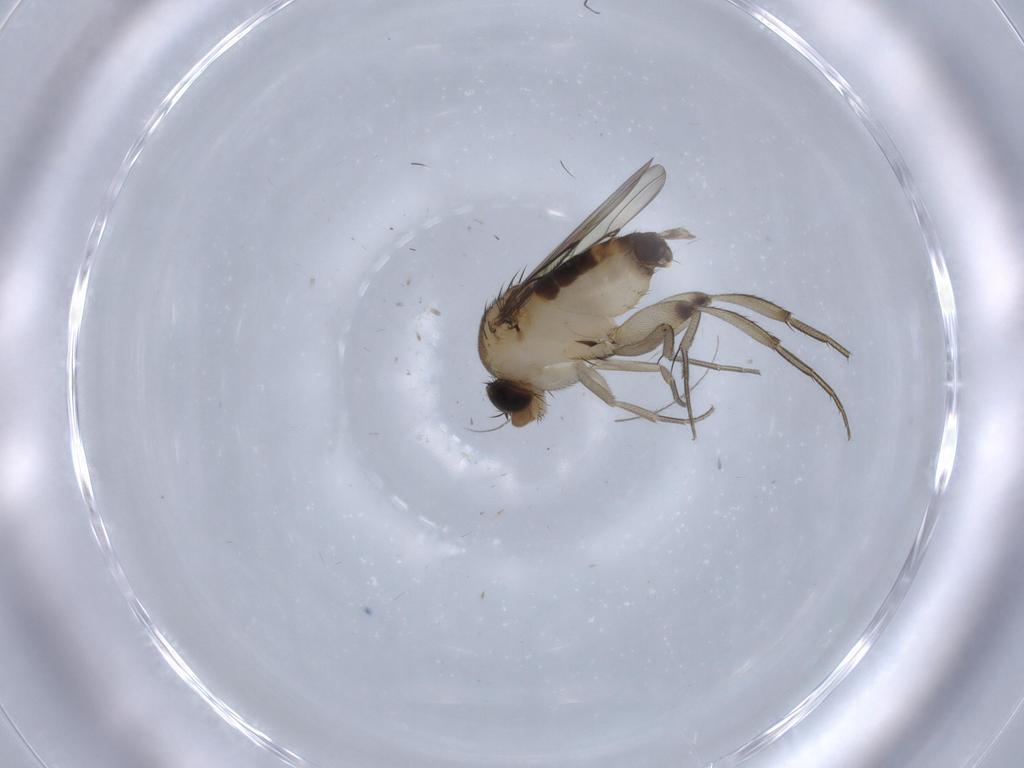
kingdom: Animalia
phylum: Arthropoda
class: Insecta
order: Diptera
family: Phoridae
